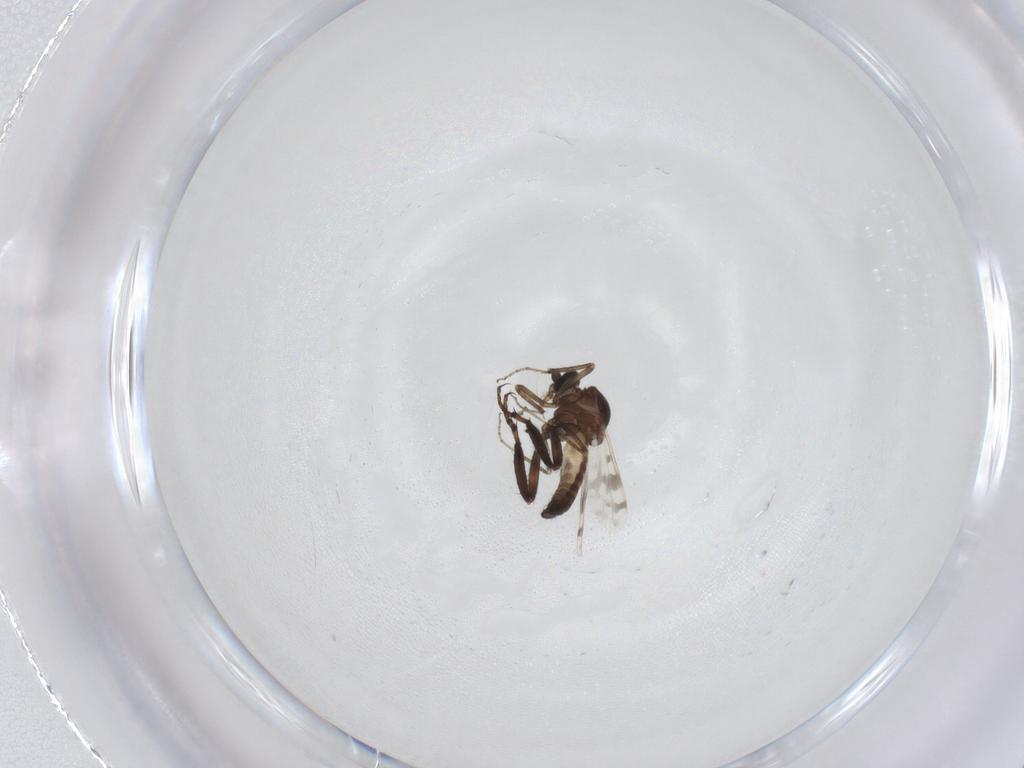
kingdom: Animalia
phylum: Arthropoda
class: Insecta
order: Diptera
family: Ceratopogonidae
